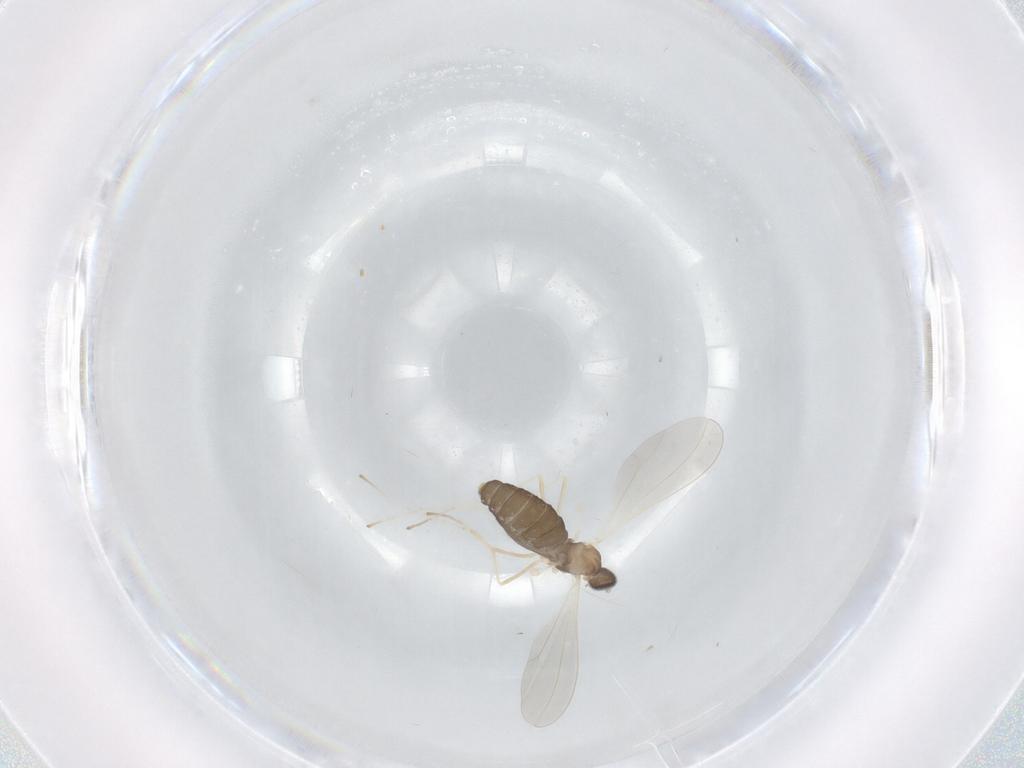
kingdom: Animalia
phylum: Arthropoda
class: Insecta
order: Diptera
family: Cecidomyiidae
